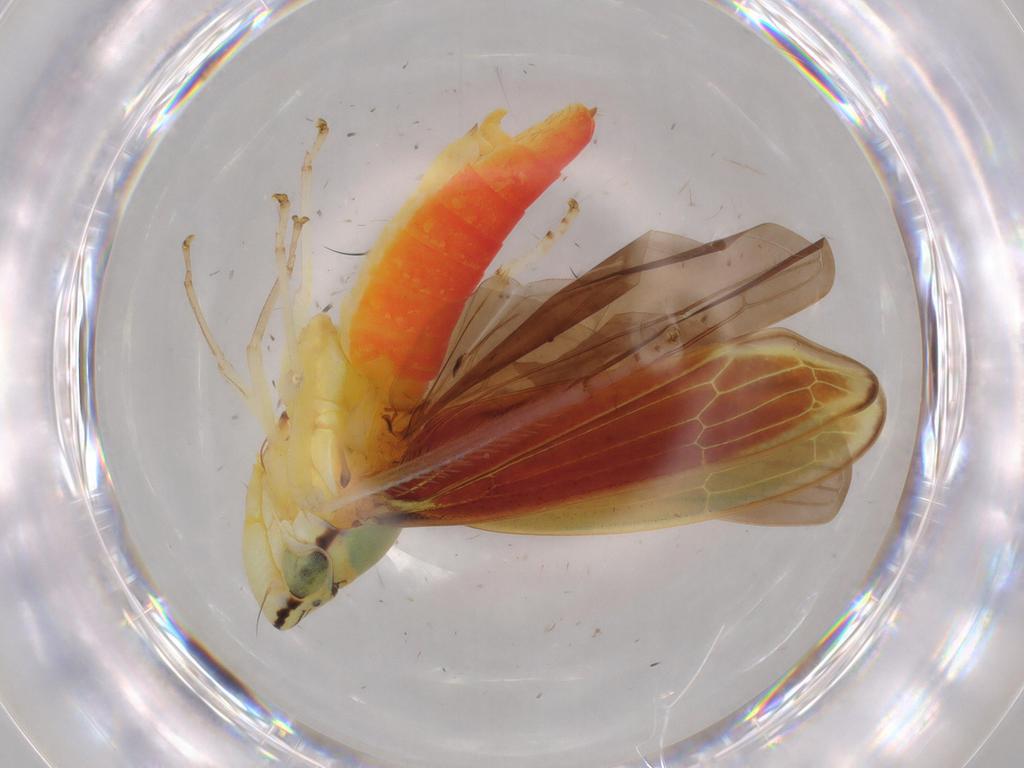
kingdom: Animalia
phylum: Arthropoda
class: Insecta
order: Hemiptera
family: Cicadellidae
